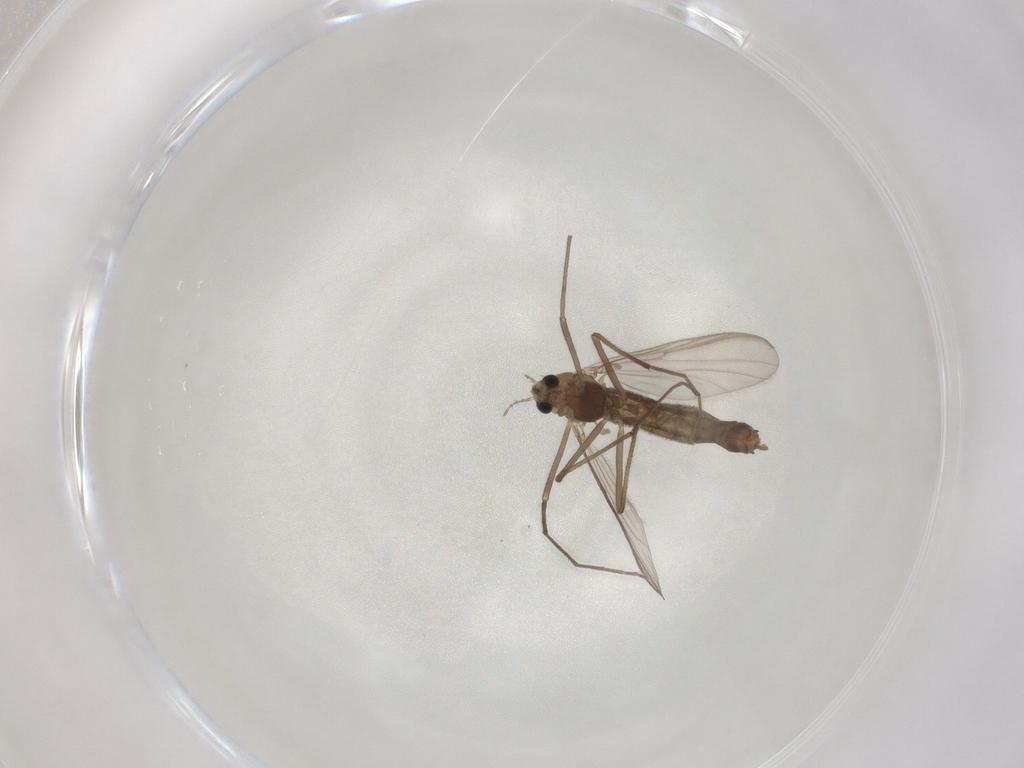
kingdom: Animalia
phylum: Arthropoda
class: Insecta
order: Diptera
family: Chironomidae
